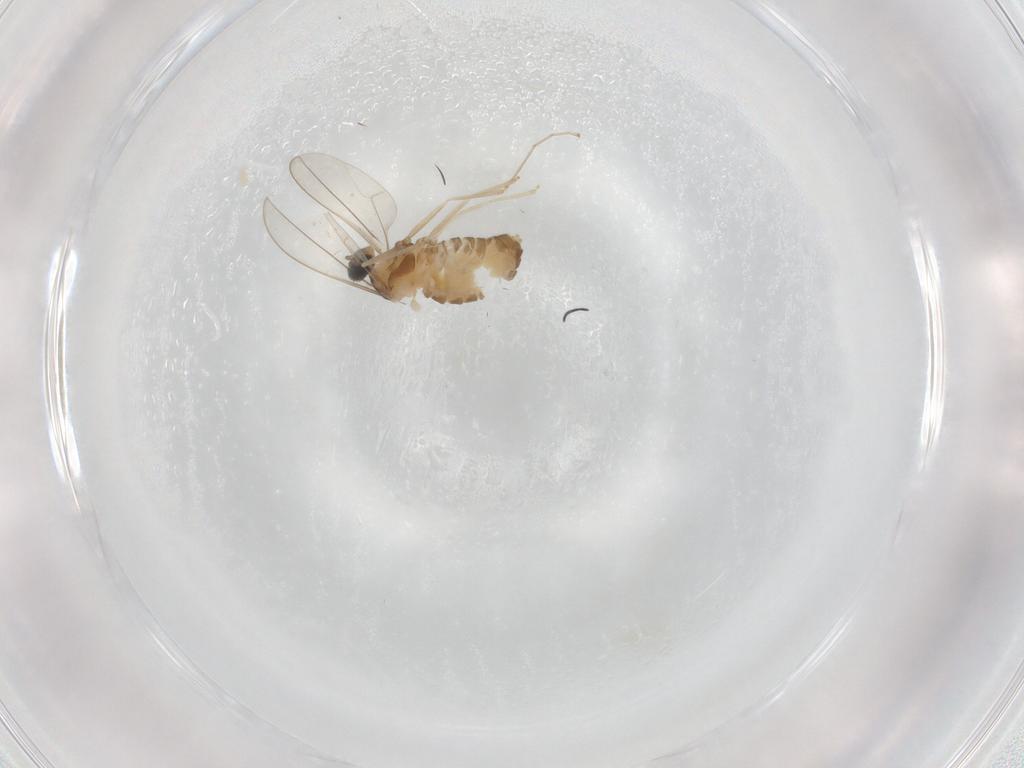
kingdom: Animalia
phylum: Arthropoda
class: Insecta
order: Diptera
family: Cecidomyiidae
